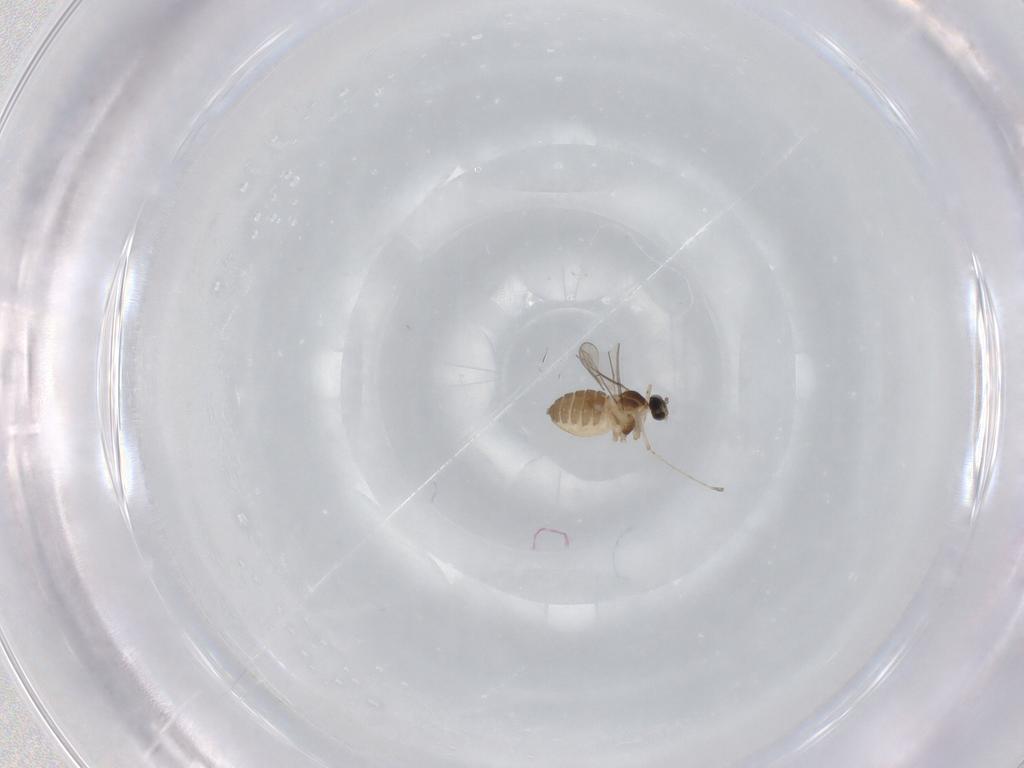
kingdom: Animalia
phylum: Arthropoda
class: Insecta
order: Diptera
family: Cecidomyiidae
